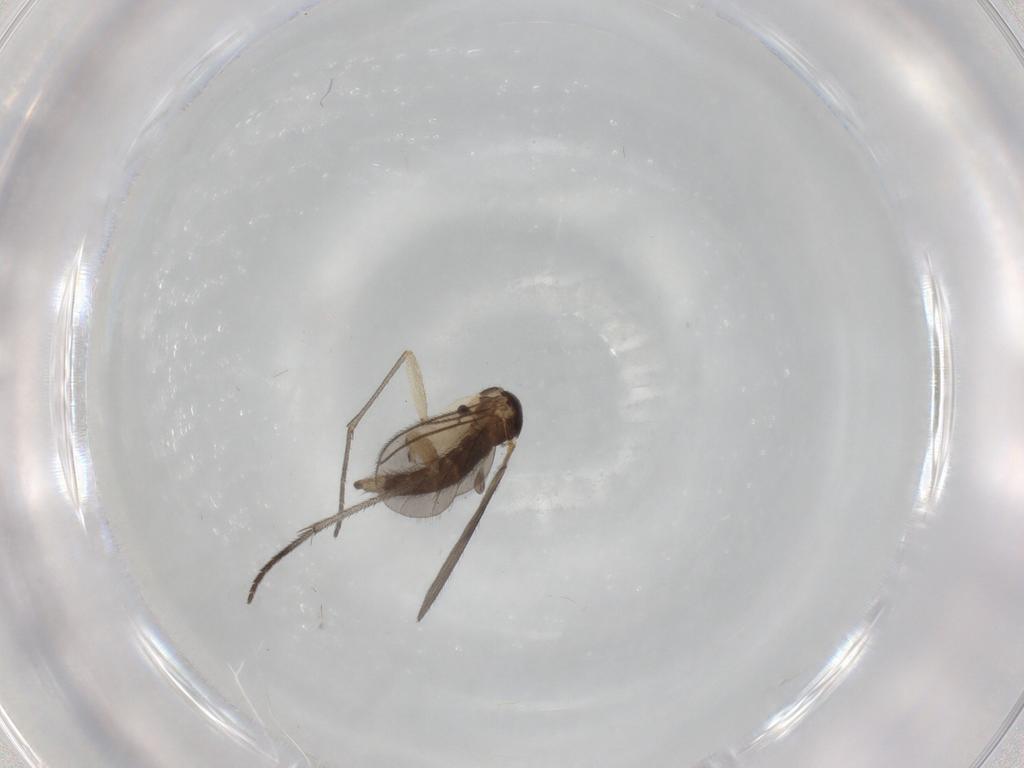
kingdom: Animalia
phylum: Arthropoda
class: Insecta
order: Diptera
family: Sciaridae
